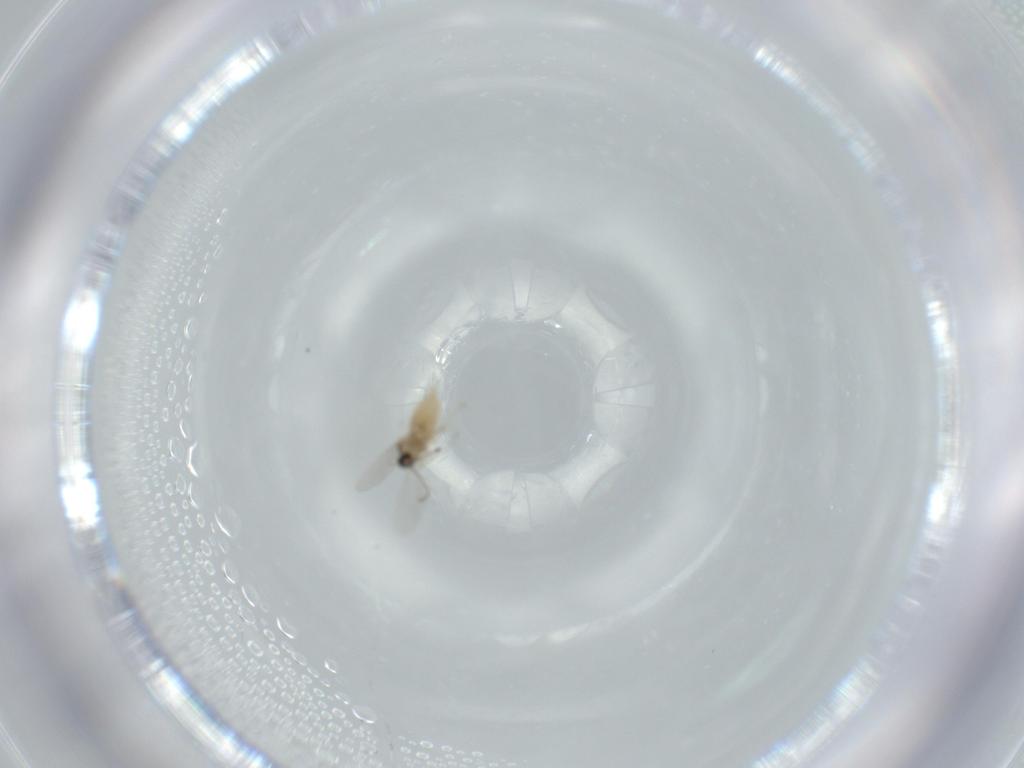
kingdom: Animalia
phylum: Arthropoda
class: Insecta
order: Diptera
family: Cecidomyiidae
